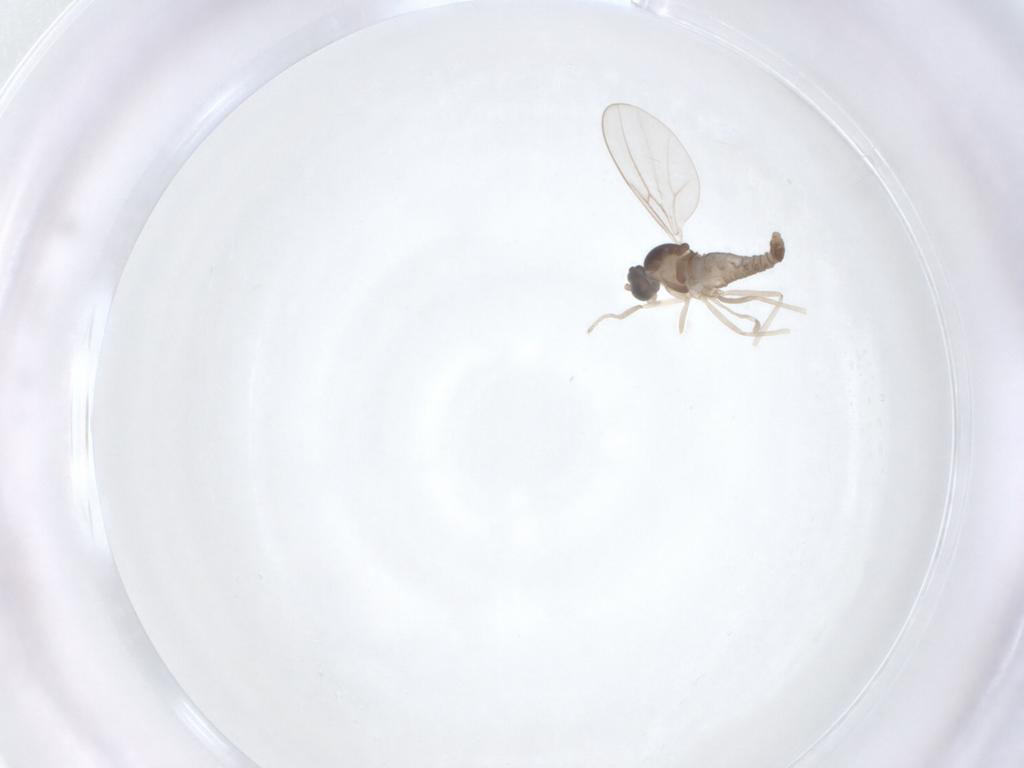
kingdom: Animalia
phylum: Arthropoda
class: Insecta
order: Diptera
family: Cecidomyiidae
